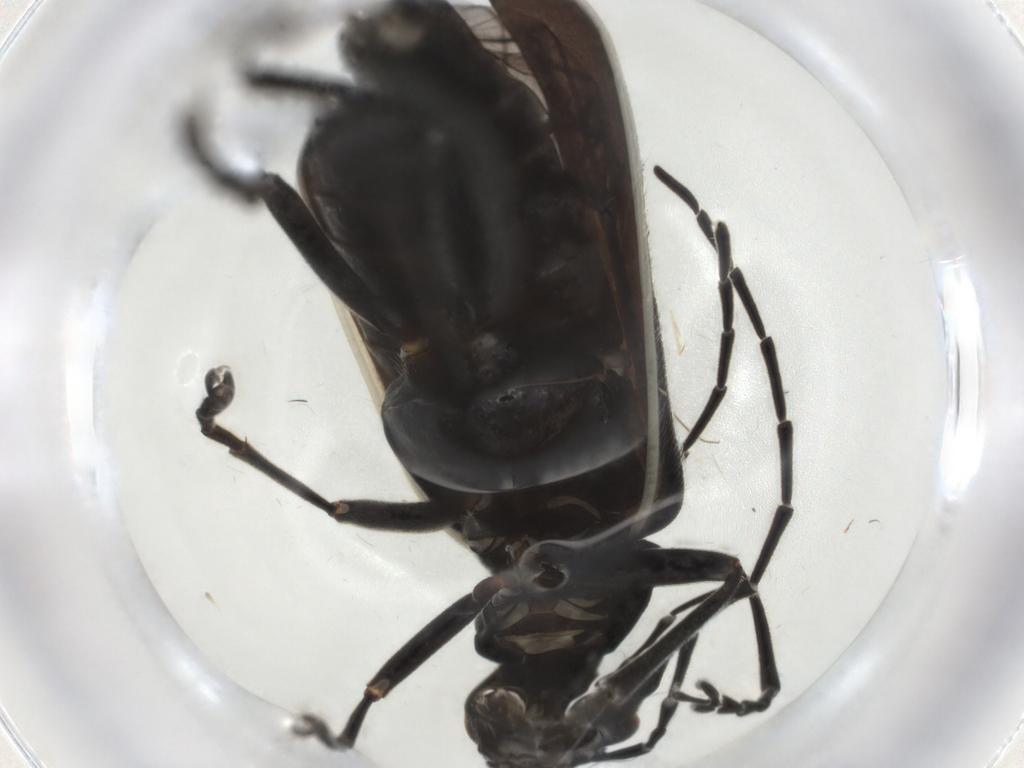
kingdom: Animalia
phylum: Arthropoda
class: Insecta
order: Coleoptera
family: Cantharidae
